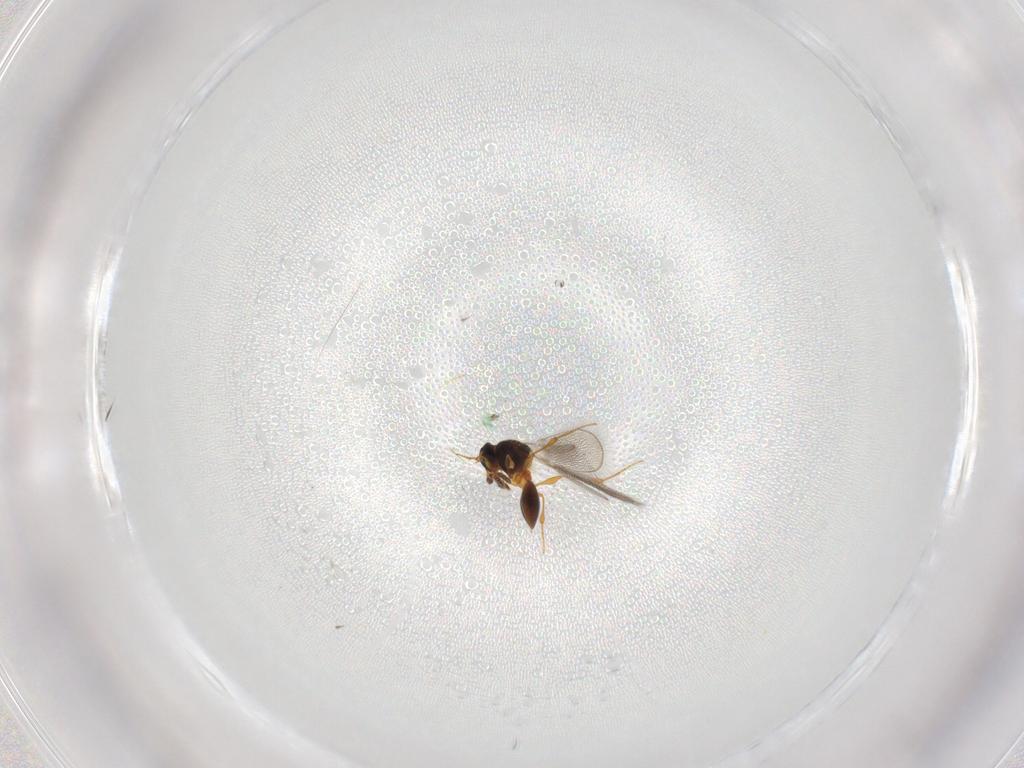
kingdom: Animalia
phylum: Arthropoda
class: Insecta
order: Hymenoptera
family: Platygastridae
